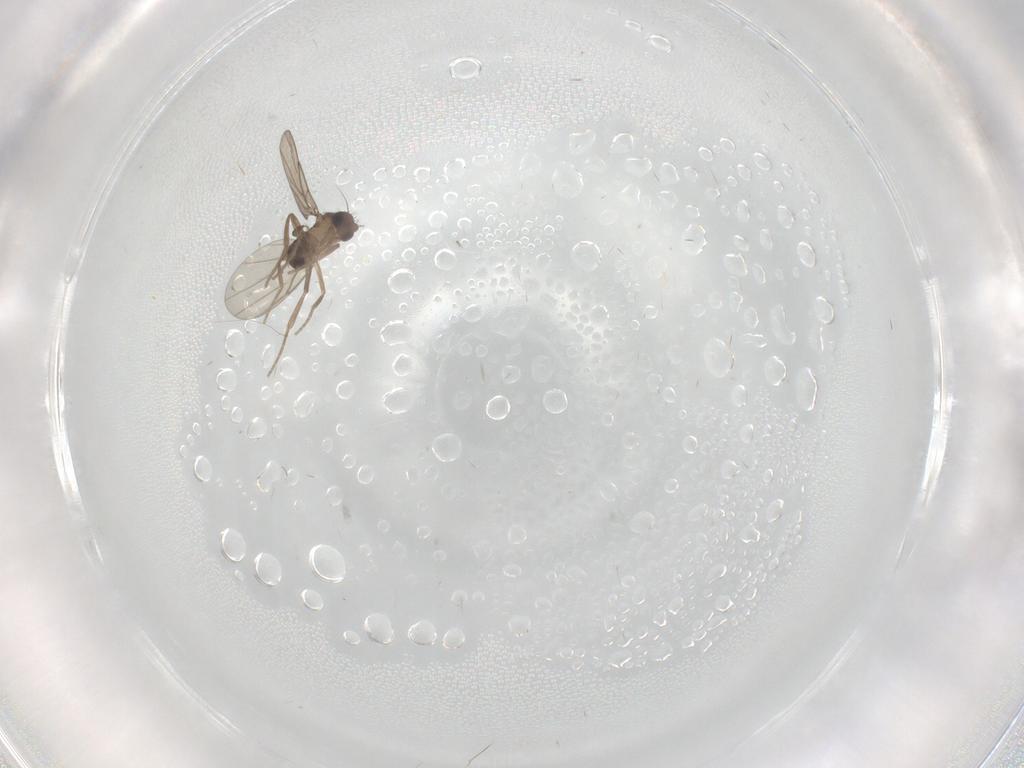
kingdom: Animalia
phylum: Arthropoda
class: Insecta
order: Diptera
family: Phoridae
